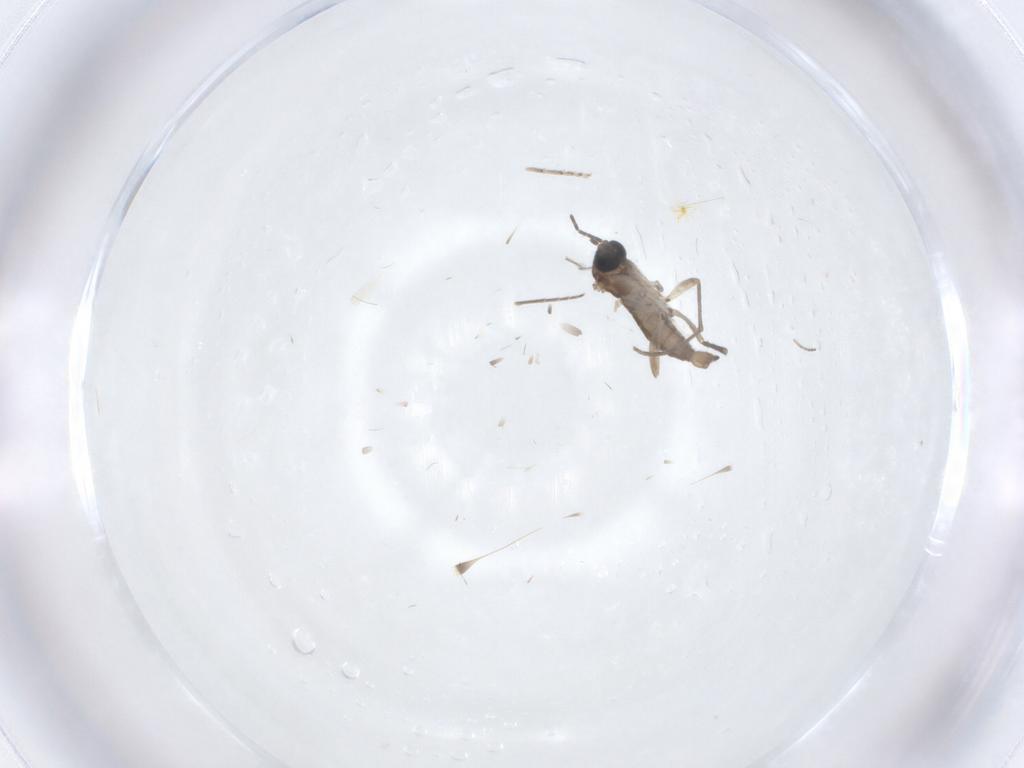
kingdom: Animalia
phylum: Arthropoda
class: Insecta
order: Diptera
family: Sciaridae
